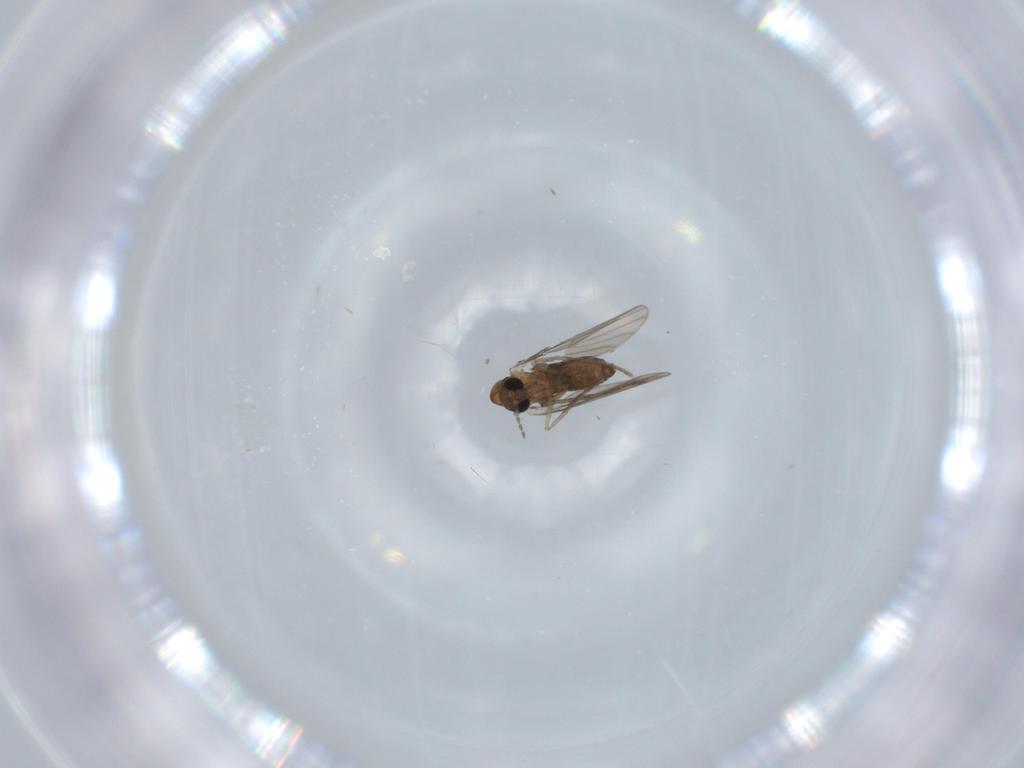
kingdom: Animalia
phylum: Arthropoda
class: Insecta
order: Diptera
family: Psychodidae
